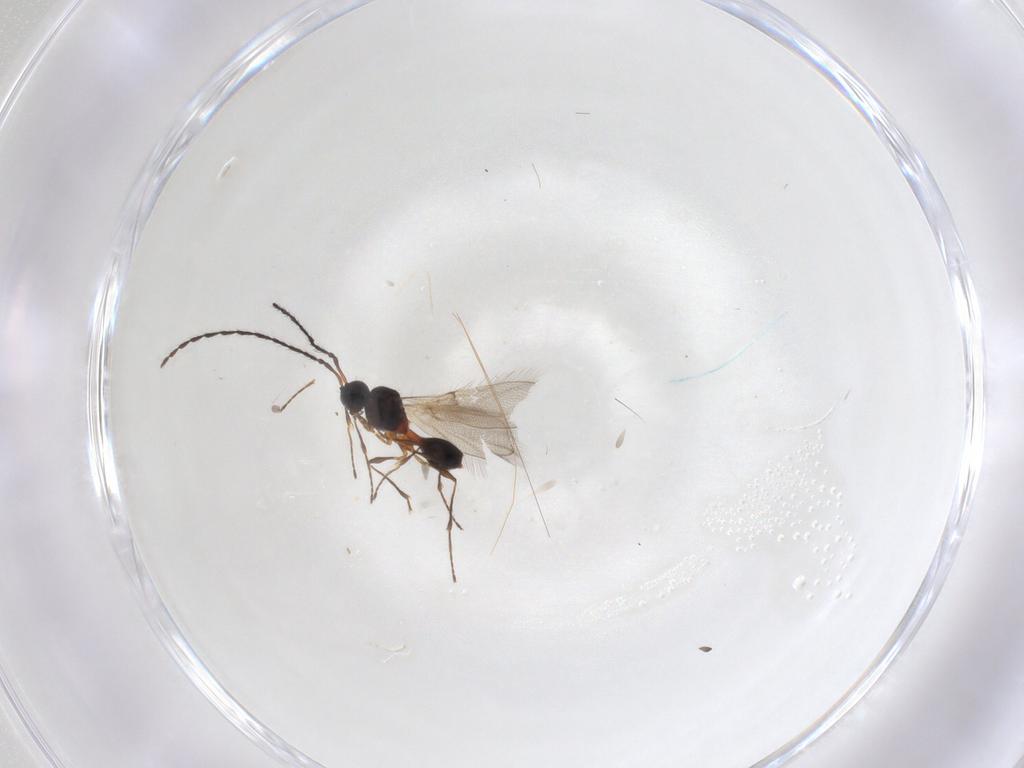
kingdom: Animalia
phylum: Arthropoda
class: Insecta
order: Hymenoptera
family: Diapriidae
